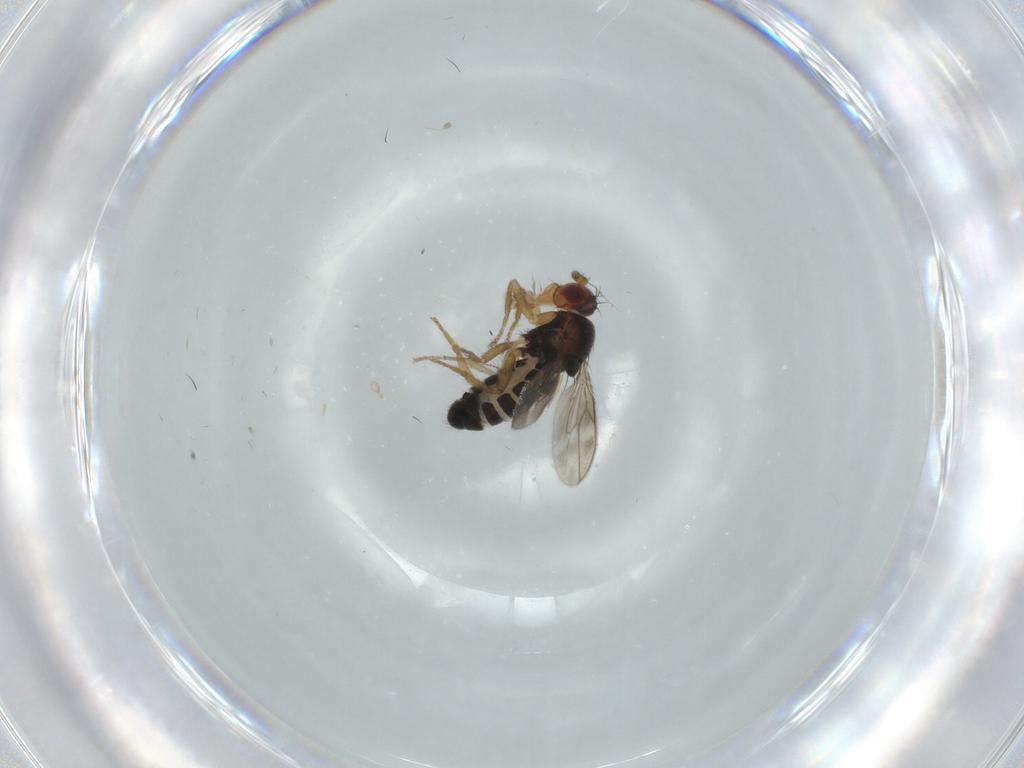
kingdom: Animalia
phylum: Arthropoda
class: Insecta
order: Diptera
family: Sphaeroceridae
